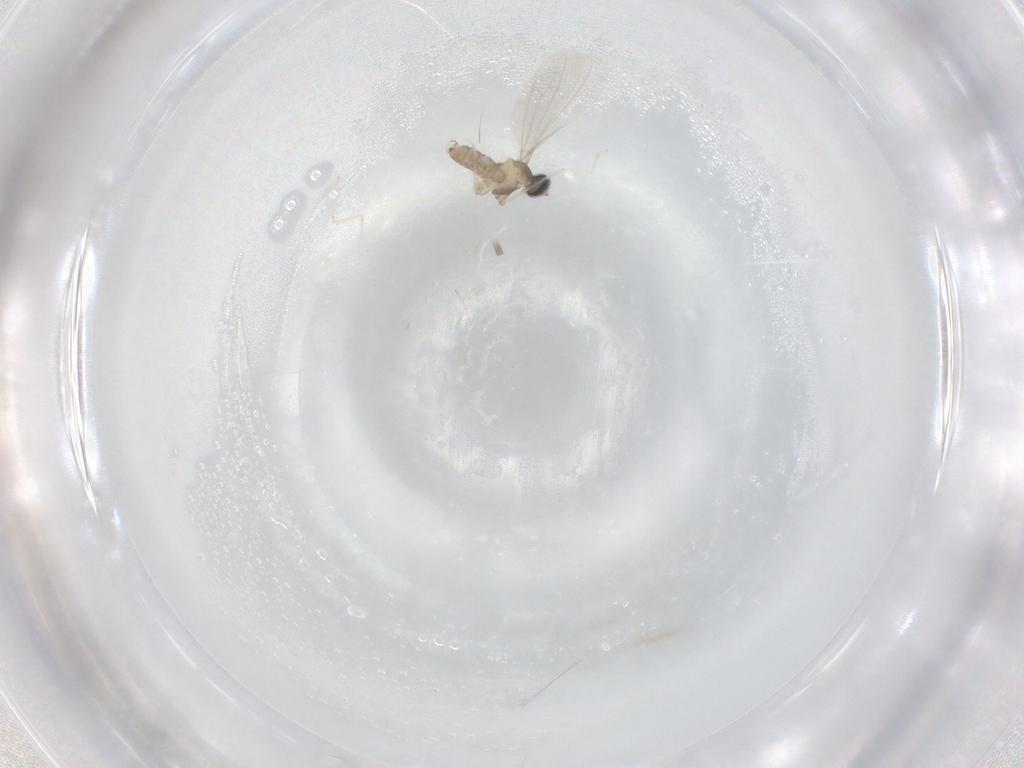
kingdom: Animalia
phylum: Arthropoda
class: Insecta
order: Diptera
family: Cecidomyiidae
